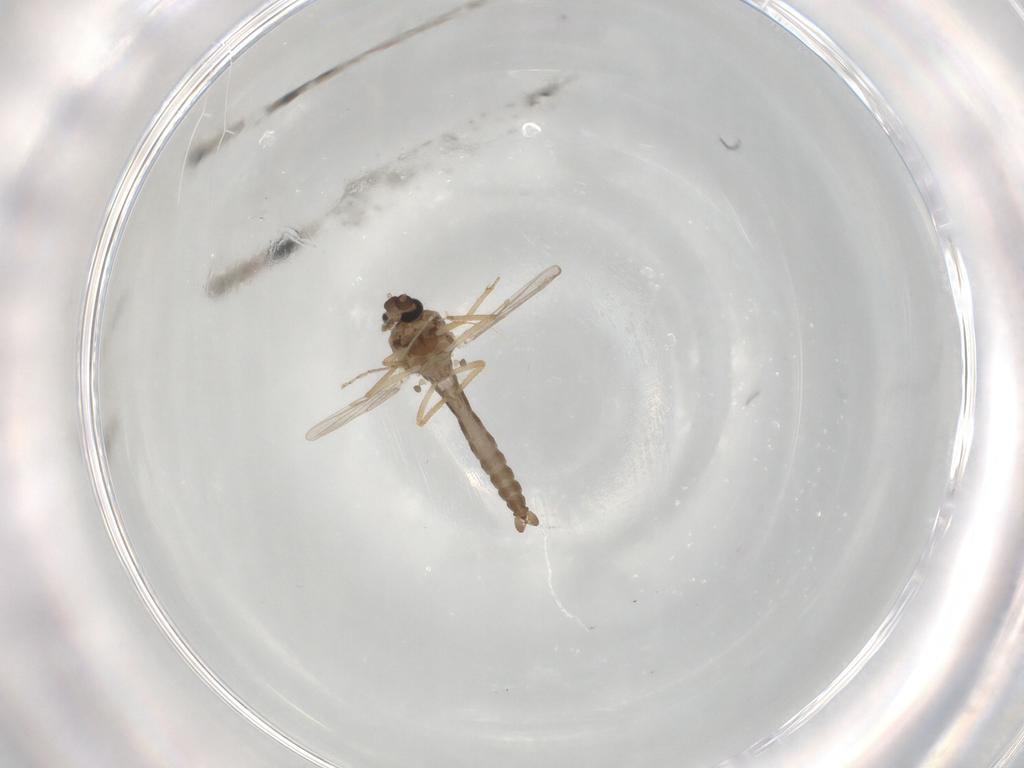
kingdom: Animalia
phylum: Arthropoda
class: Insecta
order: Diptera
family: Ceratopogonidae
